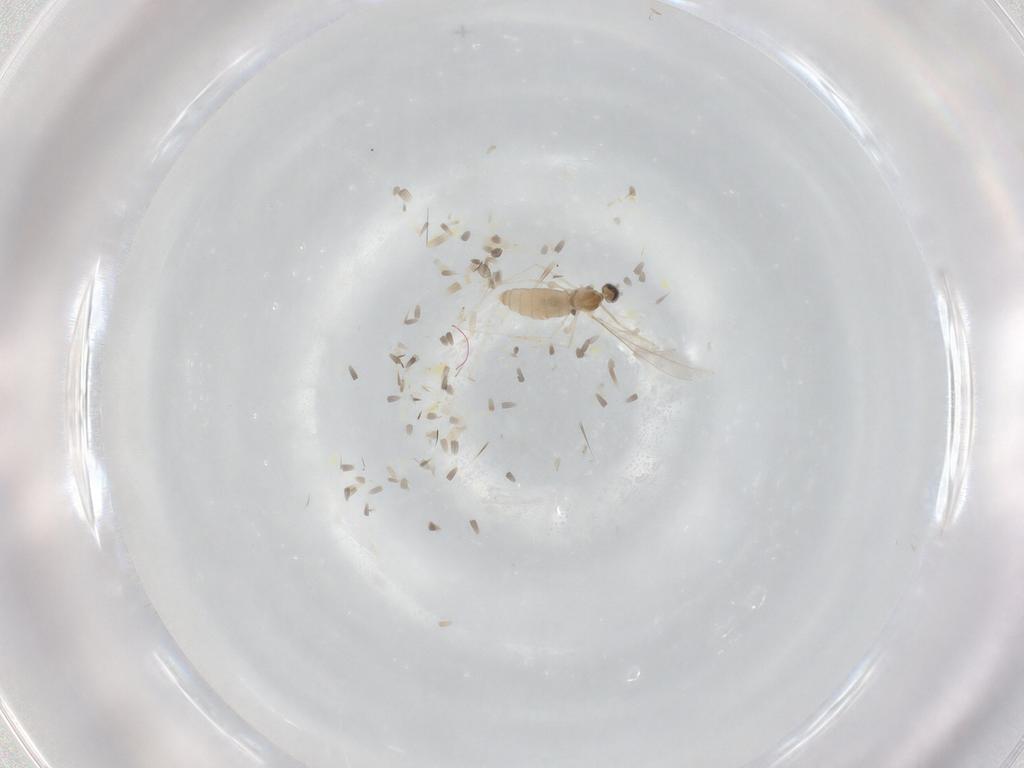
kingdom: Animalia
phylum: Arthropoda
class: Insecta
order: Diptera
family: Cecidomyiidae
